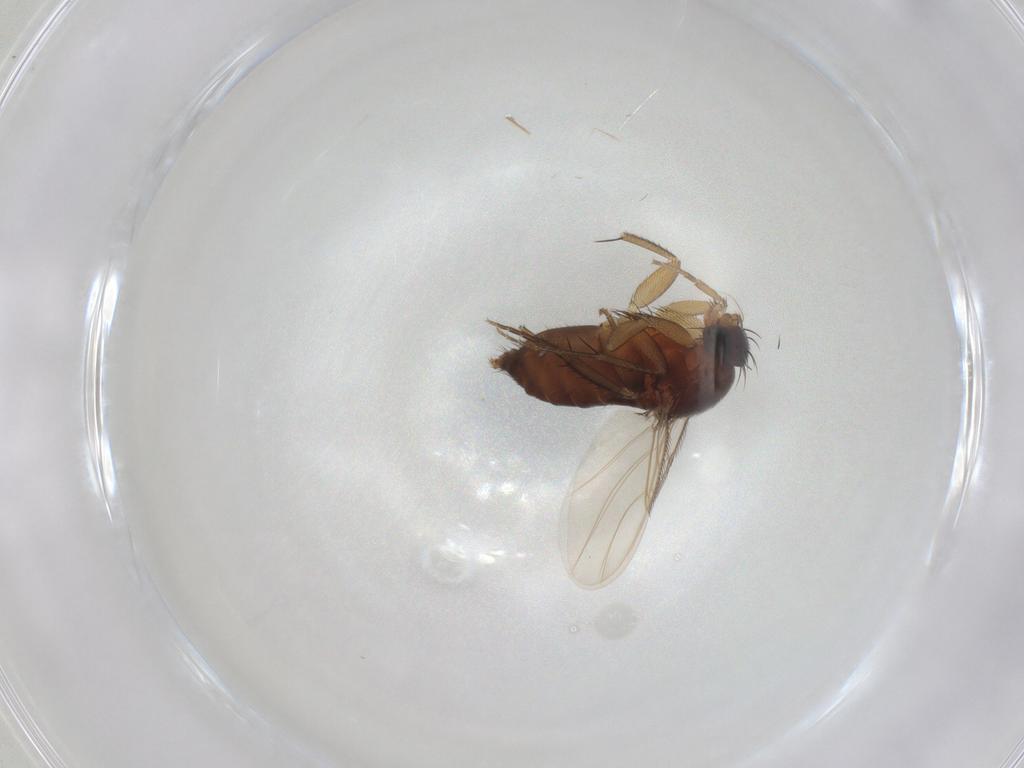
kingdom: Animalia
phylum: Arthropoda
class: Insecta
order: Diptera
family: Phoridae
